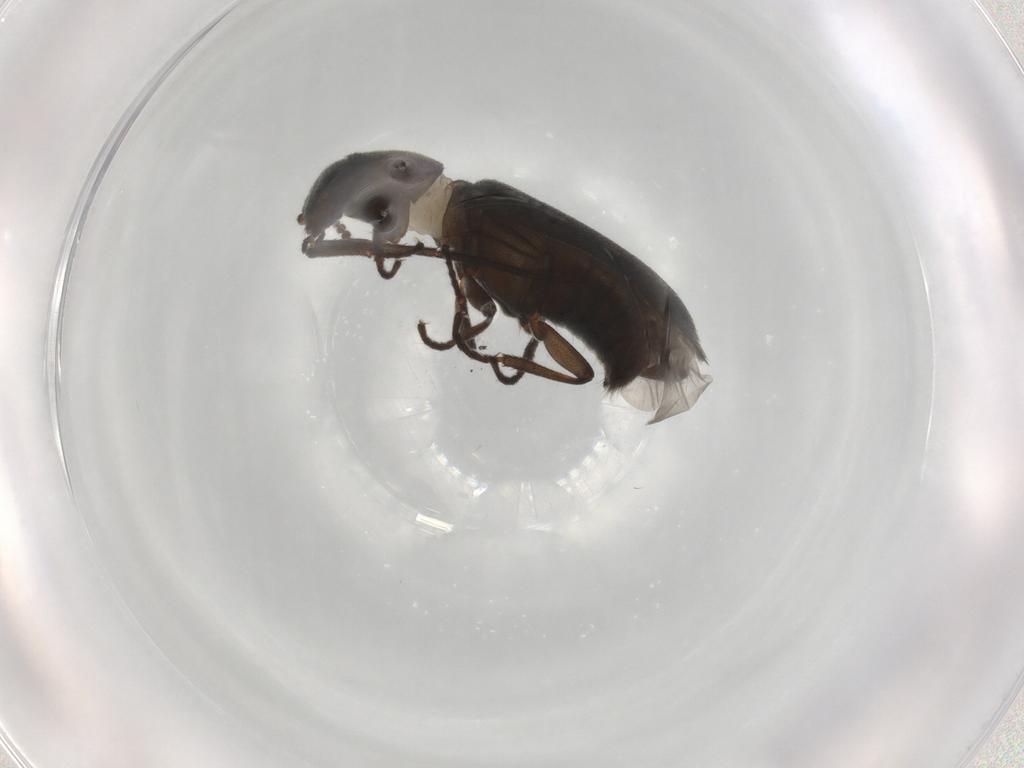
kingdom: Animalia
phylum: Arthropoda
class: Insecta
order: Coleoptera
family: Melyridae
